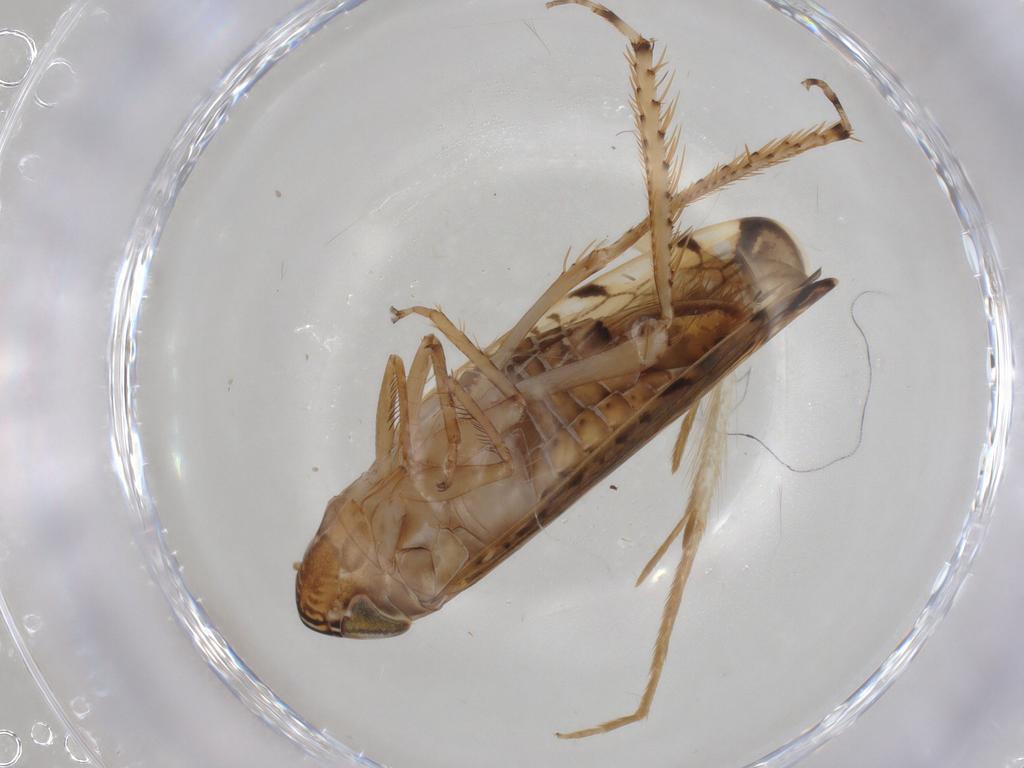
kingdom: Animalia
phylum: Arthropoda
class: Insecta
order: Hemiptera
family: Cicadellidae
